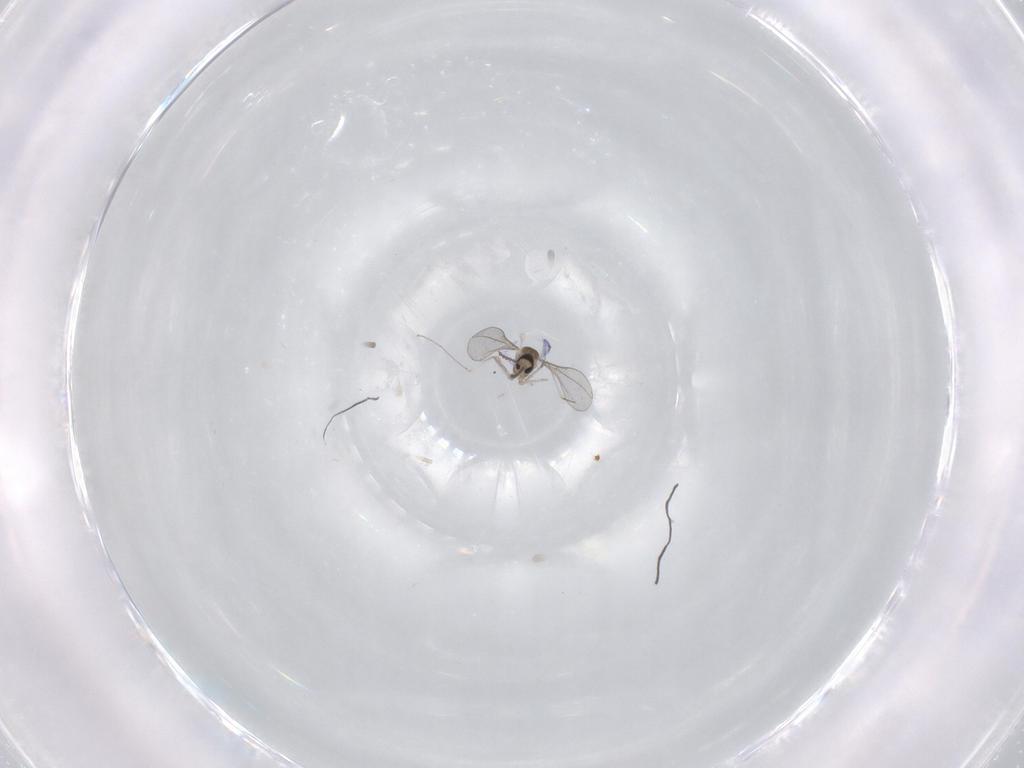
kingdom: Animalia
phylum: Arthropoda
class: Insecta
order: Diptera
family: Cecidomyiidae
